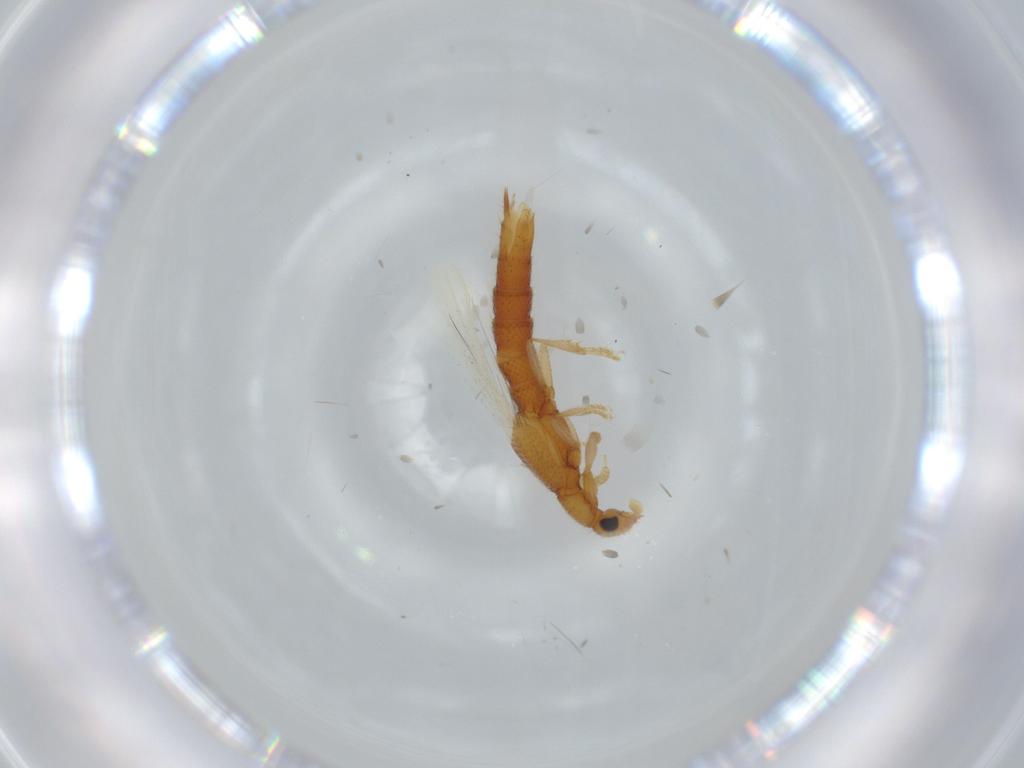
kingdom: Animalia
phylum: Arthropoda
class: Insecta
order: Coleoptera
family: Staphylinidae
